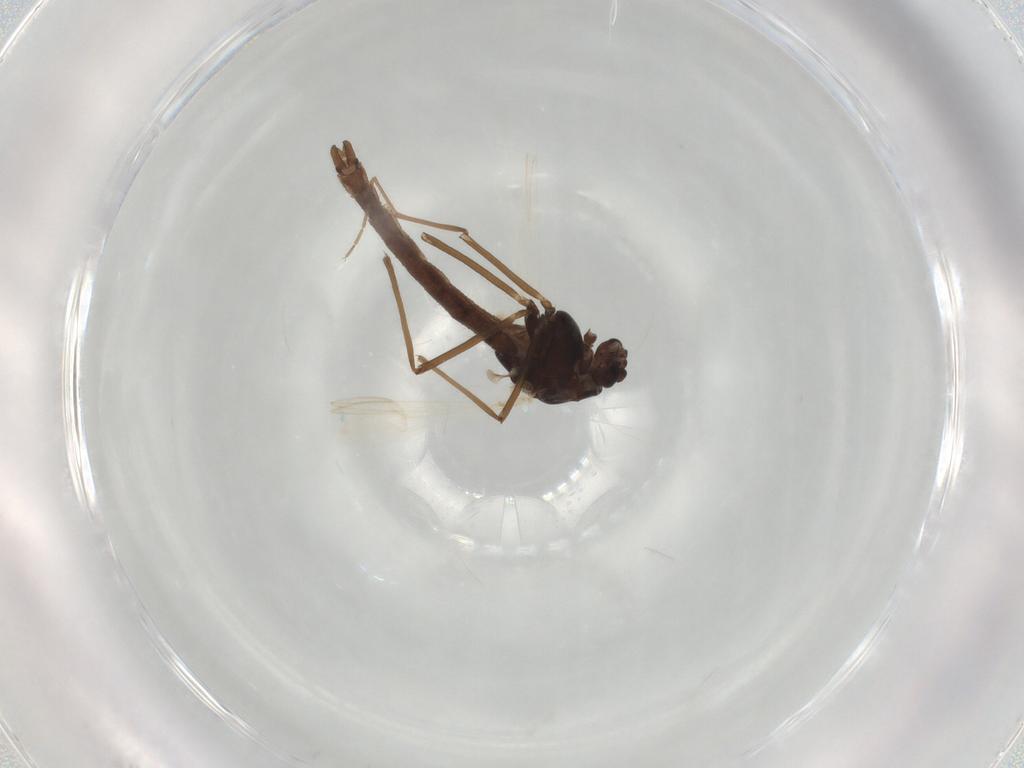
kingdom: Animalia
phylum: Arthropoda
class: Insecta
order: Diptera
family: Chironomidae
